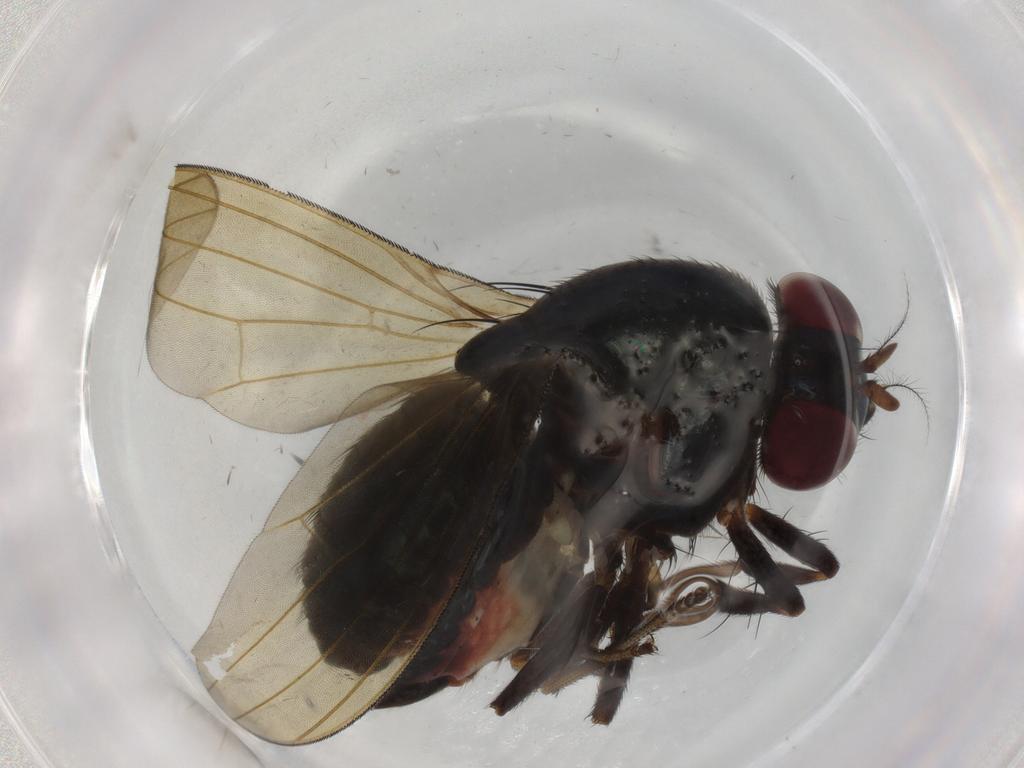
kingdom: Animalia
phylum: Arthropoda
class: Insecta
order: Diptera
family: Lauxaniidae
